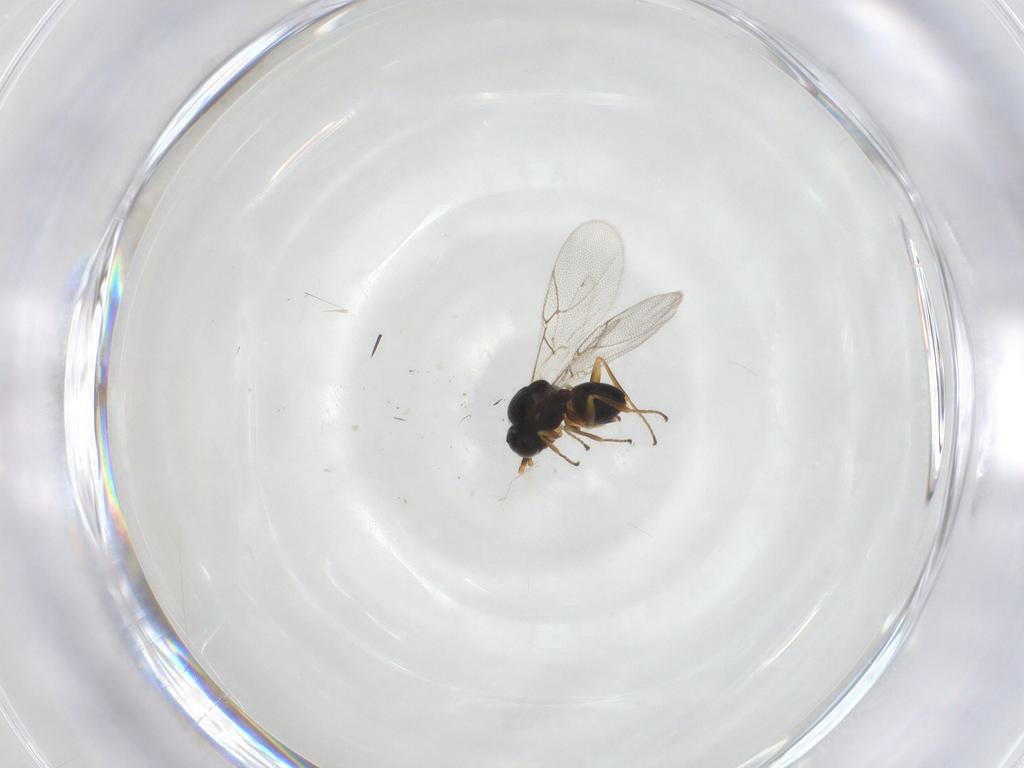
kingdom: Animalia
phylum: Arthropoda
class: Insecta
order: Hymenoptera
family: Figitidae
